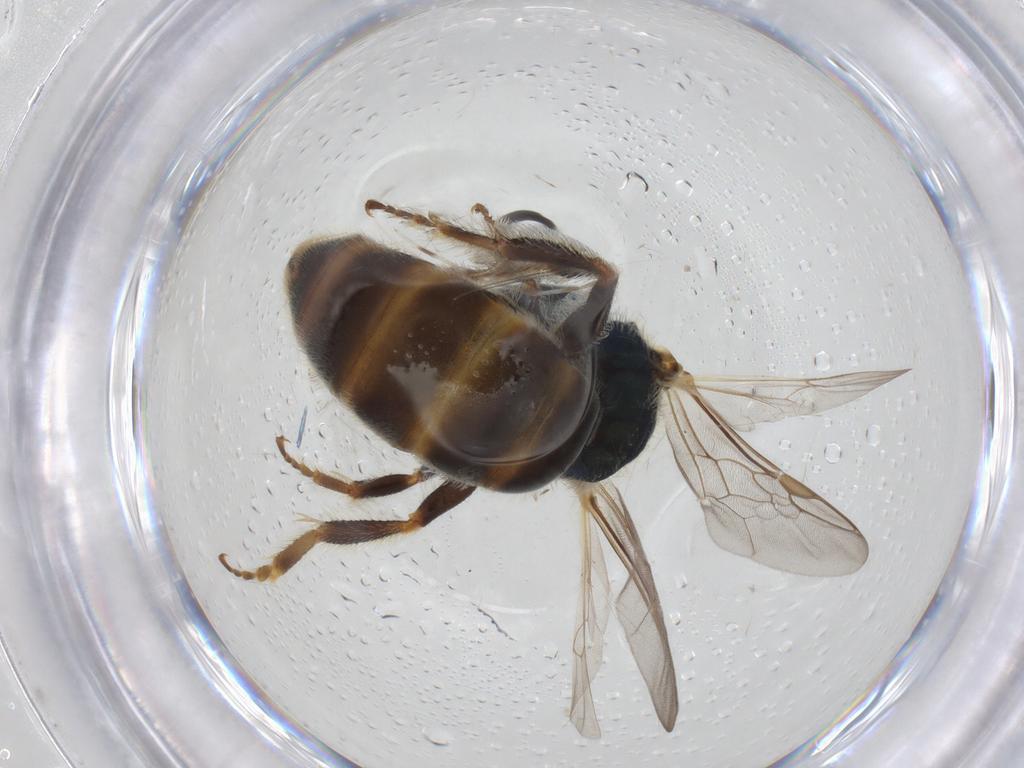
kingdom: Animalia
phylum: Arthropoda
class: Insecta
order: Hymenoptera
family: Halictidae
